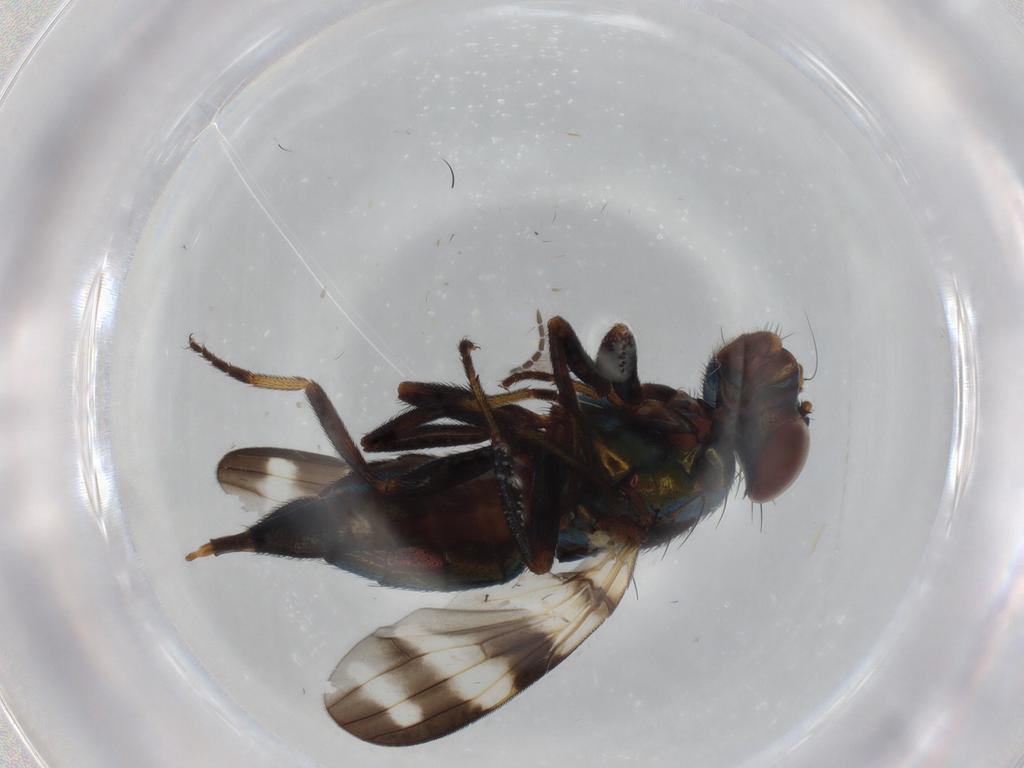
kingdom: Animalia
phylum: Arthropoda
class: Insecta
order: Diptera
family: Ulidiidae
